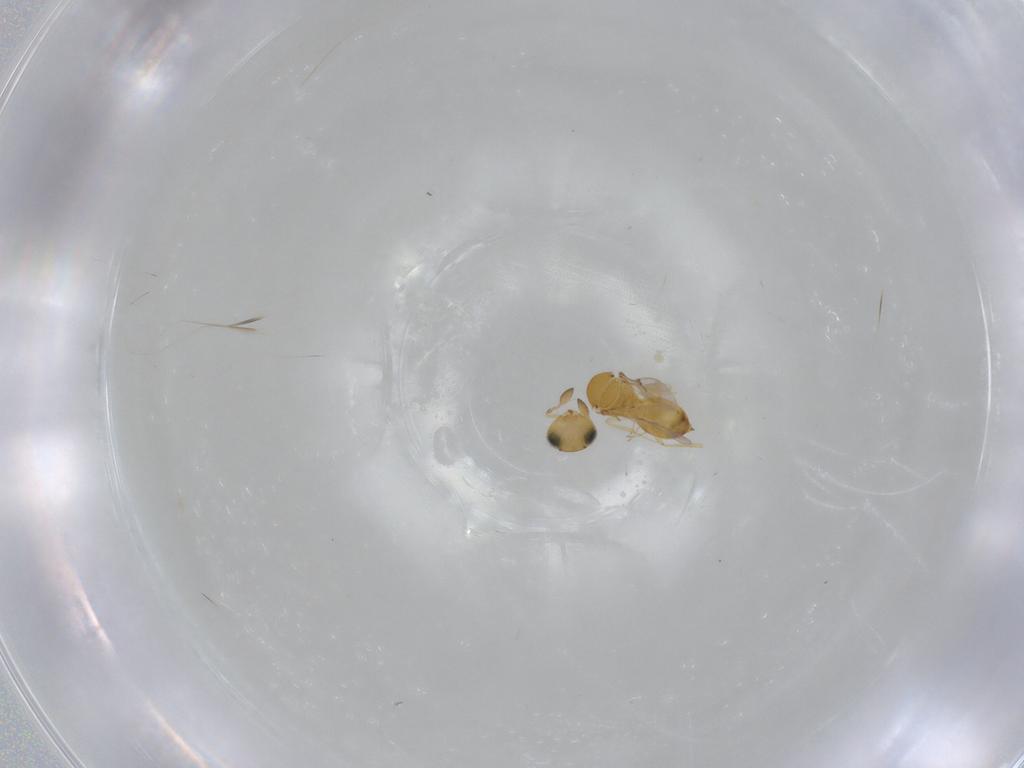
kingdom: Animalia
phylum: Arthropoda
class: Insecta
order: Hymenoptera
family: Scelionidae
